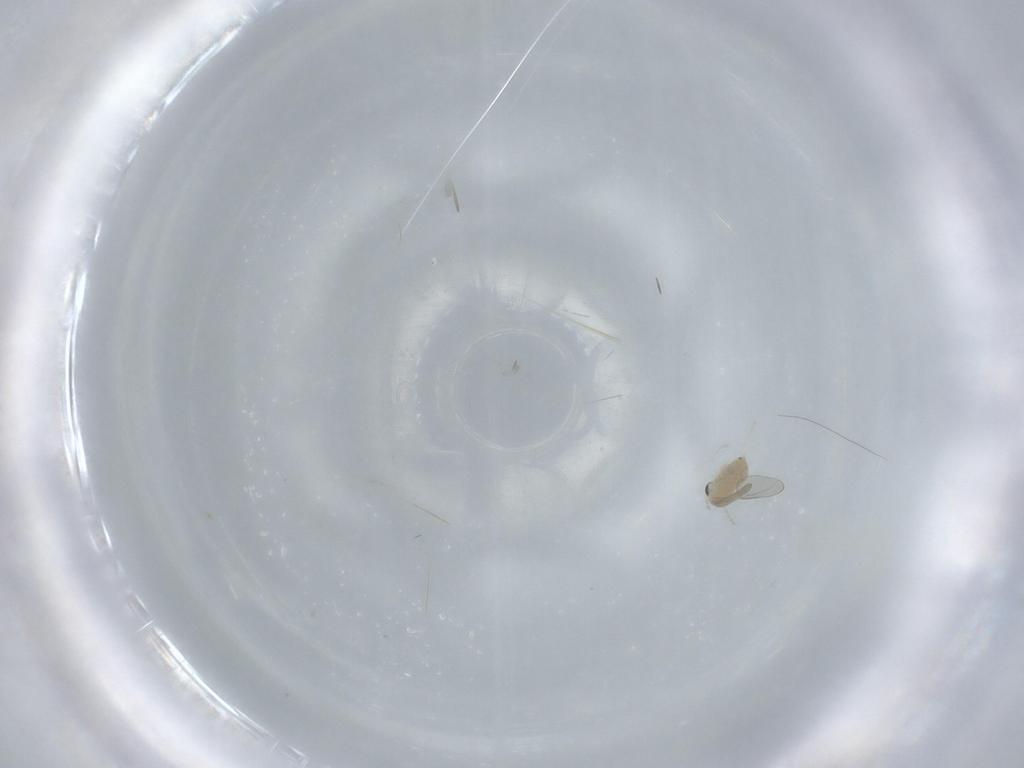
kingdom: Animalia
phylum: Arthropoda
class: Insecta
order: Diptera
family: Cecidomyiidae
